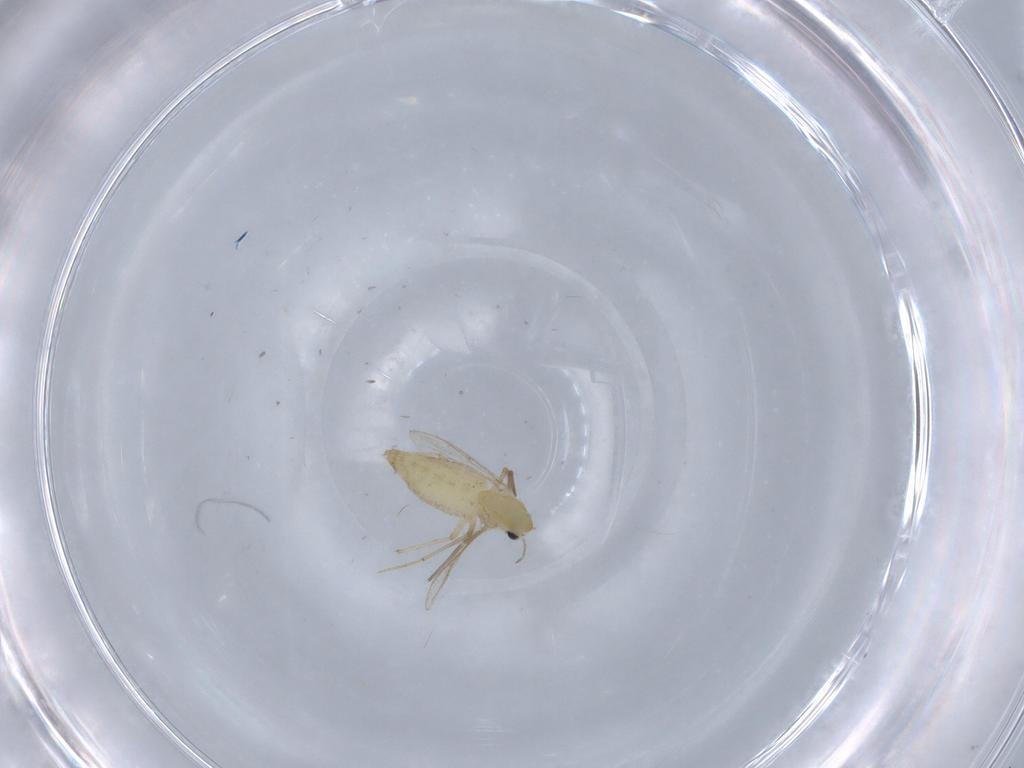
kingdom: Animalia
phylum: Arthropoda
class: Insecta
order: Diptera
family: Chironomidae
